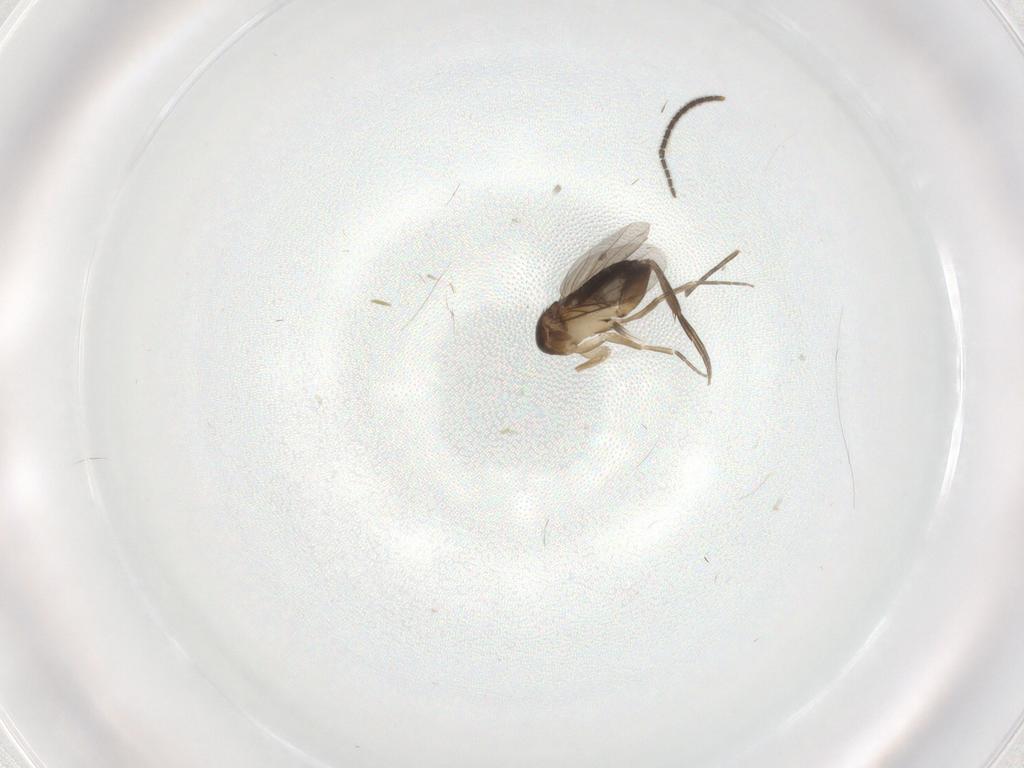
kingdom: Animalia
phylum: Arthropoda
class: Insecta
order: Diptera
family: Phoridae
